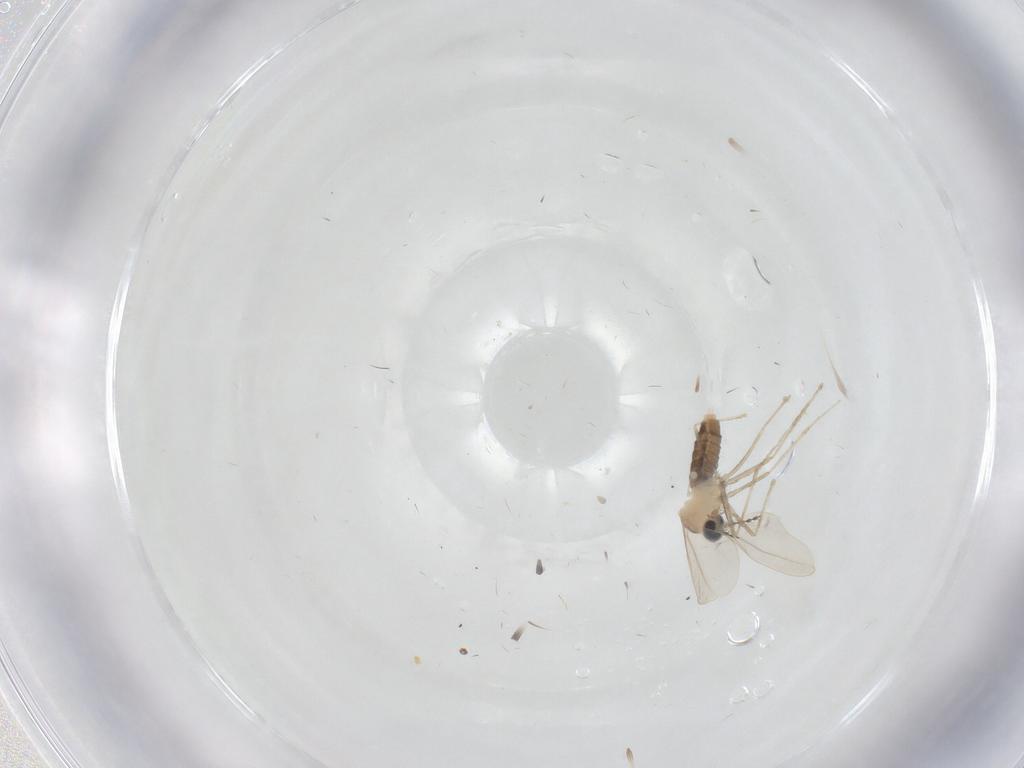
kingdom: Animalia
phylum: Arthropoda
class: Insecta
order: Diptera
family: Cecidomyiidae
